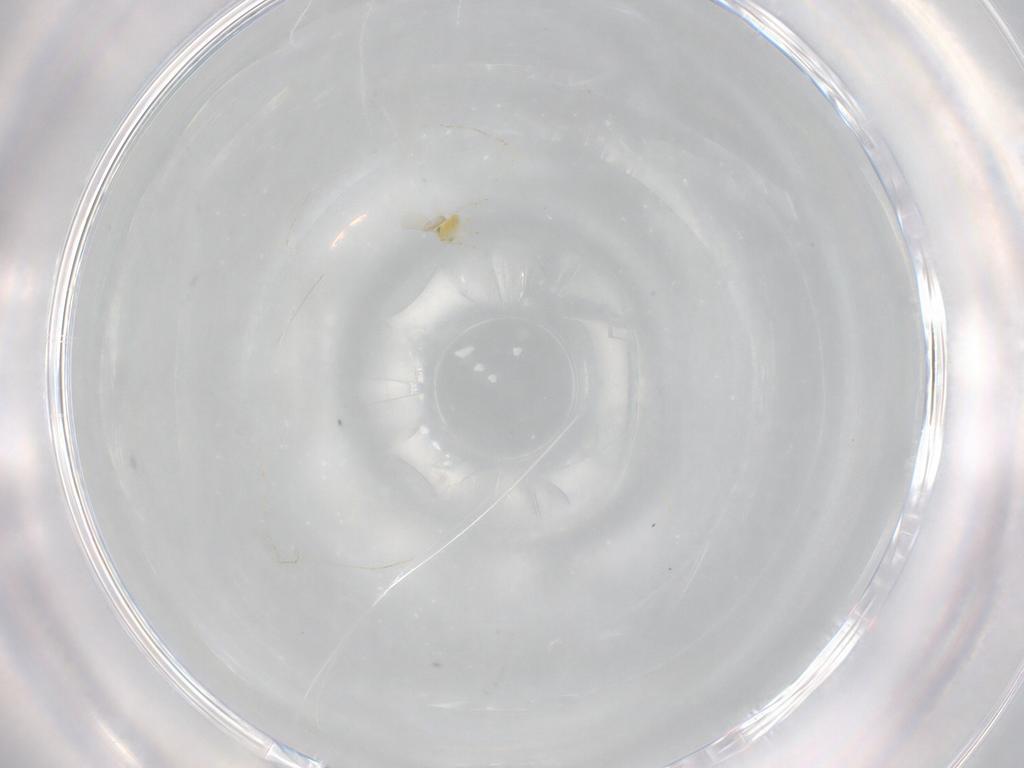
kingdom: Animalia
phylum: Arthropoda
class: Insecta
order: Hymenoptera
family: Aphelinidae
